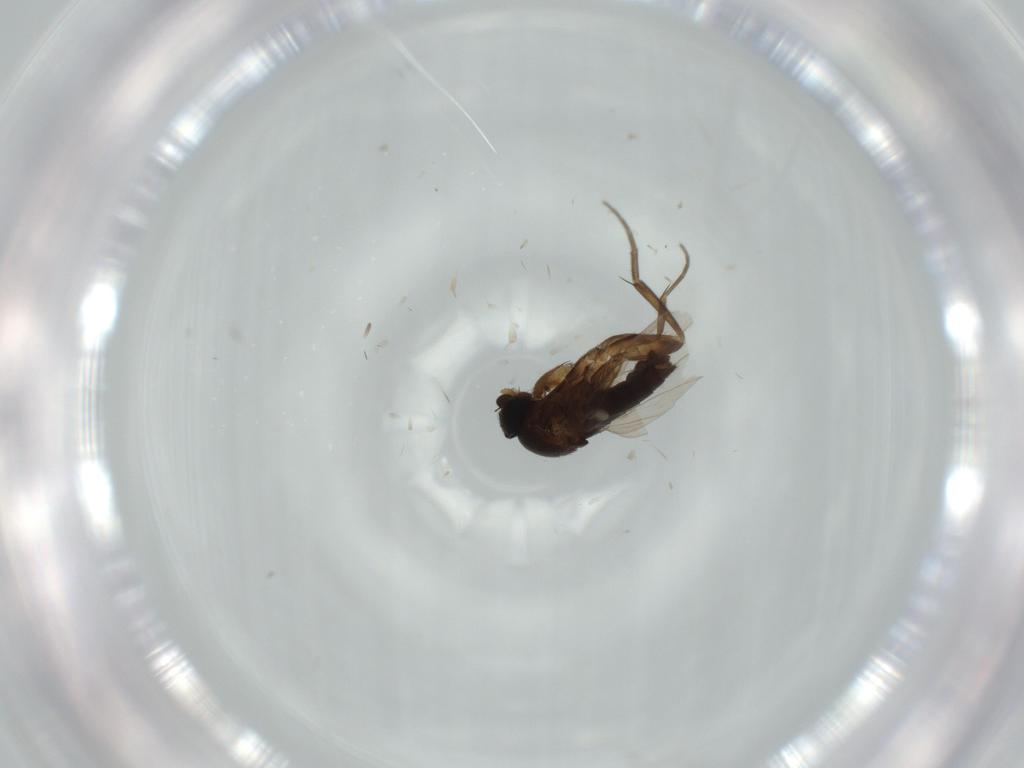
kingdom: Animalia
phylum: Arthropoda
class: Insecta
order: Diptera
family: Phoridae
